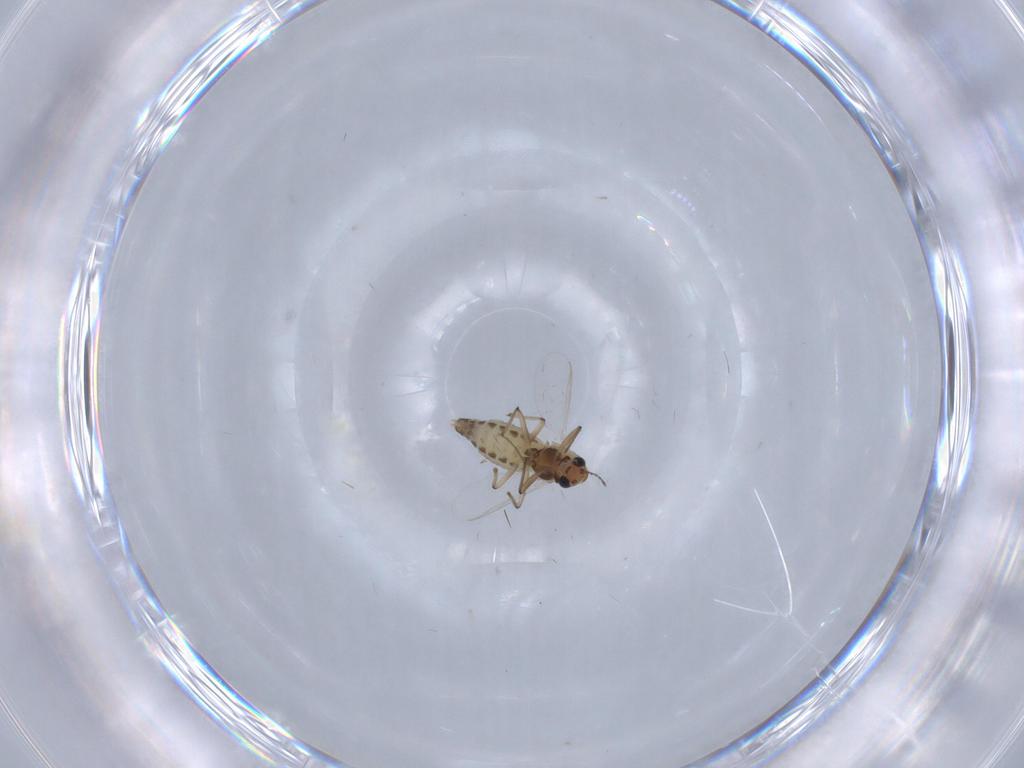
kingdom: Animalia
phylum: Arthropoda
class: Insecta
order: Diptera
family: Chironomidae
